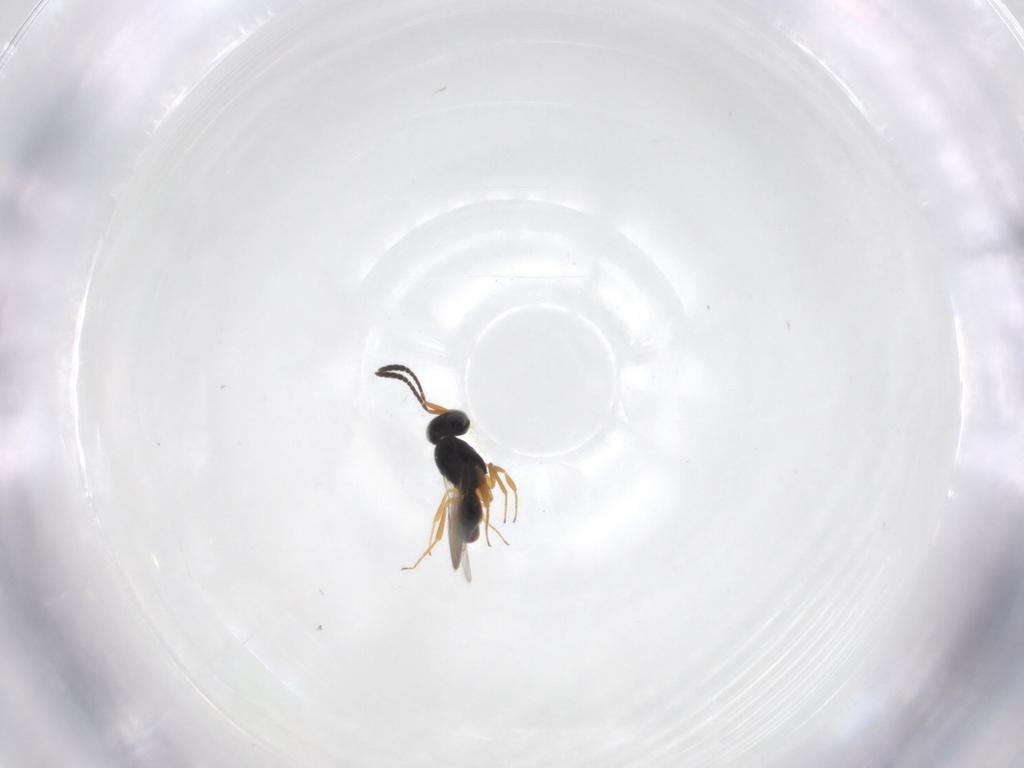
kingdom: Animalia
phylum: Arthropoda
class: Insecta
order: Hymenoptera
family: Scelionidae
